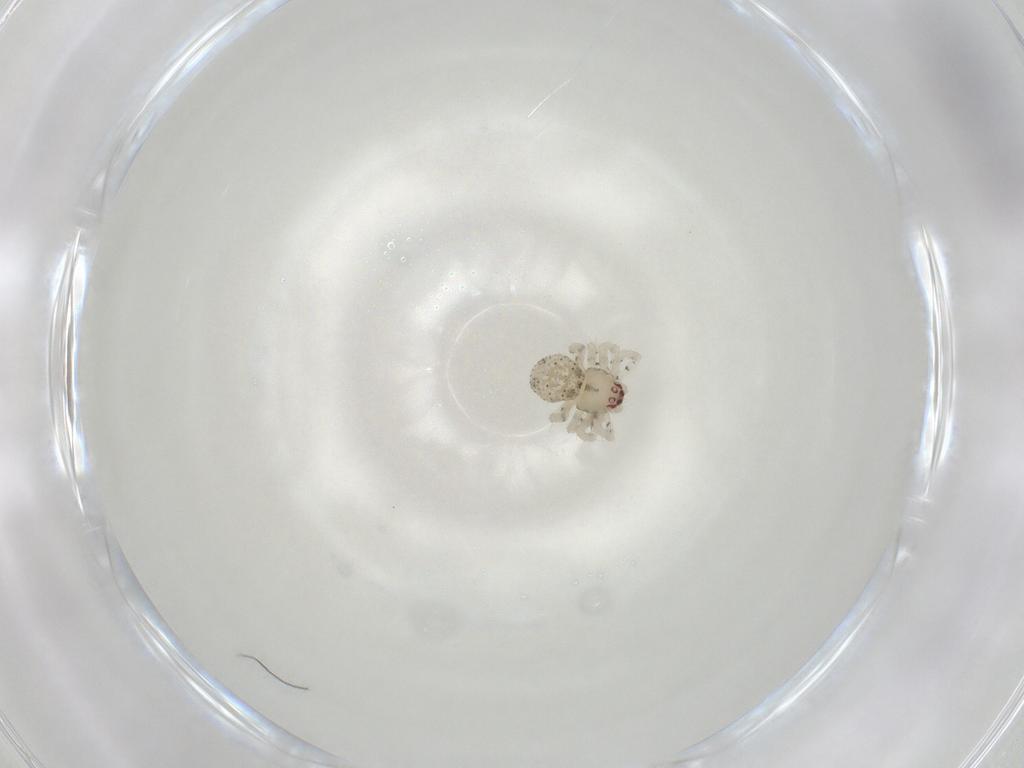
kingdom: Animalia
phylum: Arthropoda
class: Arachnida
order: Araneae
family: Theridiidae
